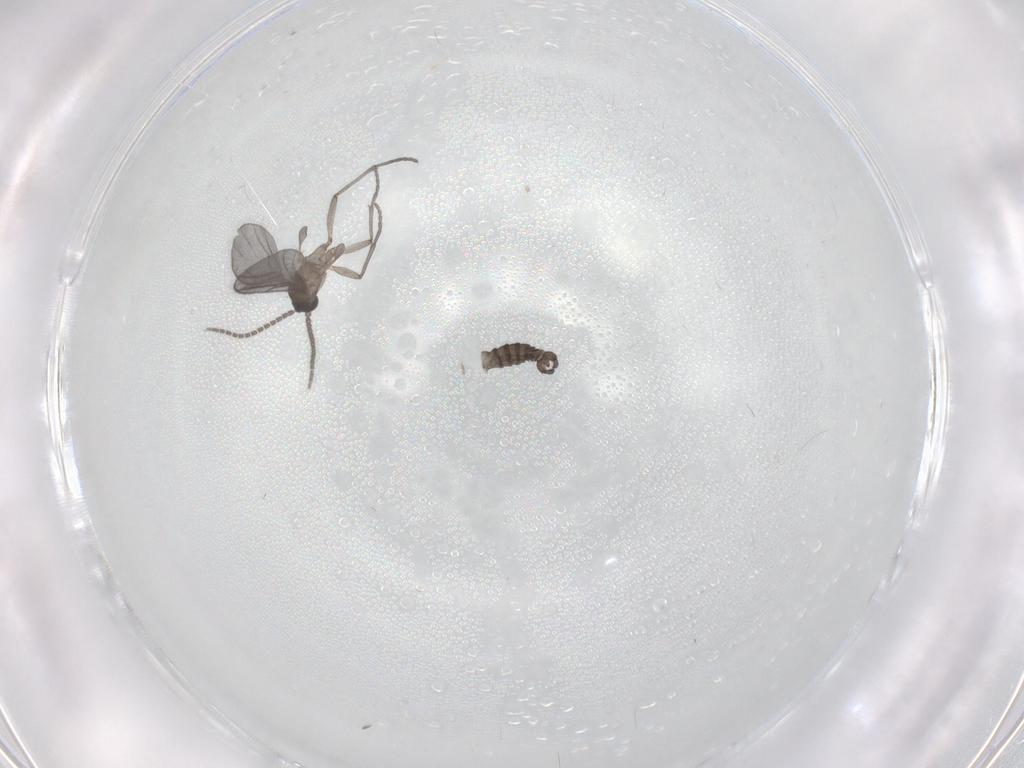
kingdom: Animalia
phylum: Arthropoda
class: Insecta
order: Diptera
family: Sciaridae
